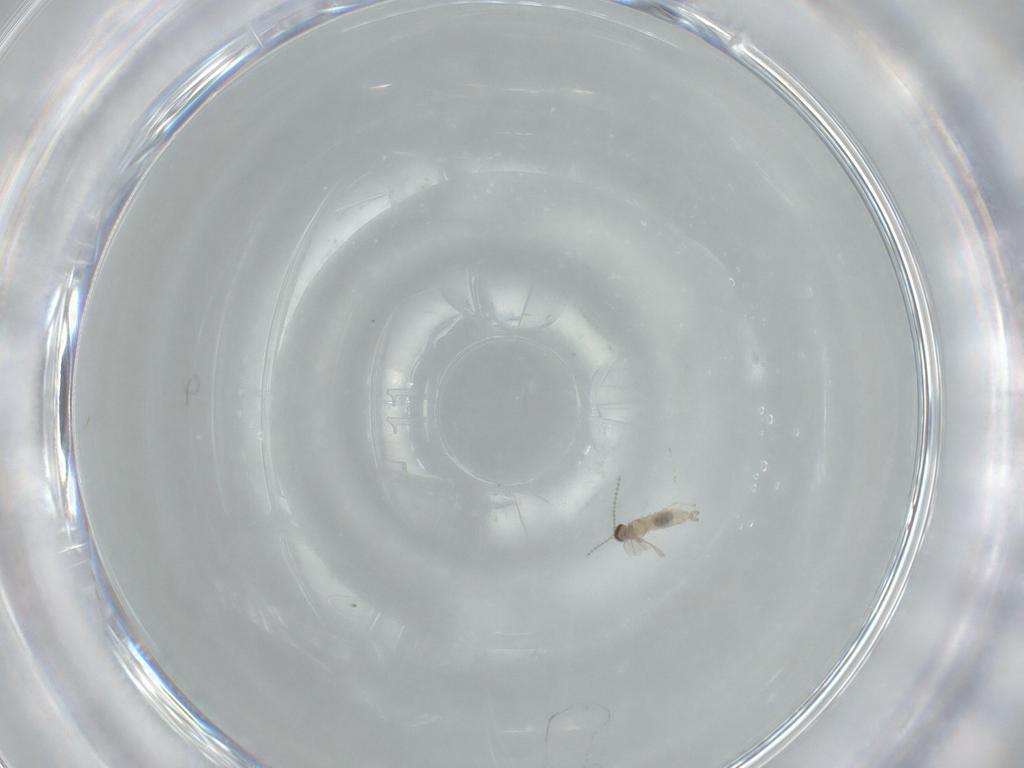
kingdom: Animalia
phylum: Arthropoda
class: Insecta
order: Diptera
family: Cecidomyiidae
